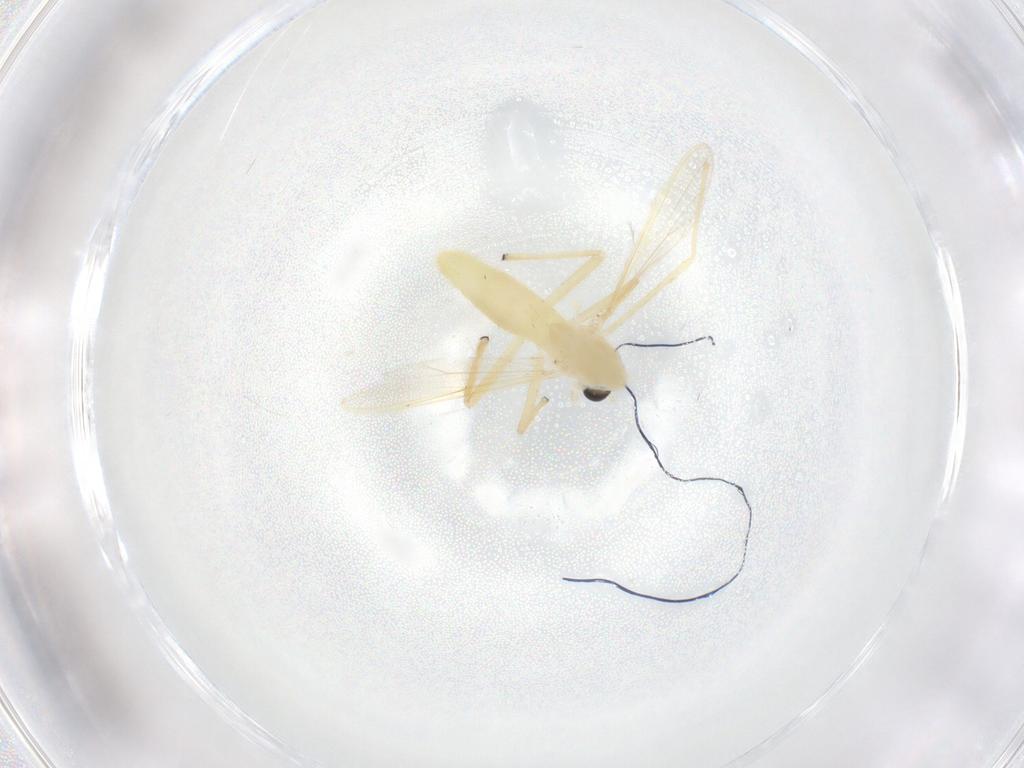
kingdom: Animalia
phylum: Arthropoda
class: Insecta
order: Diptera
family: Chironomidae
